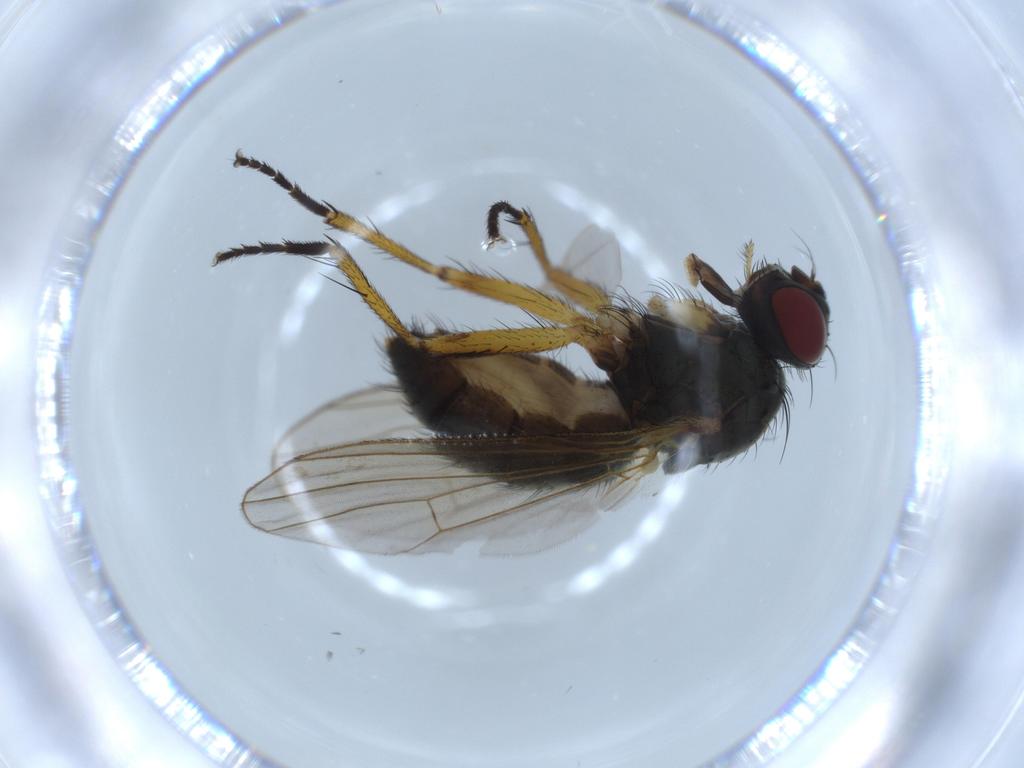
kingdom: Animalia
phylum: Arthropoda
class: Insecta
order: Diptera
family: Muscidae
